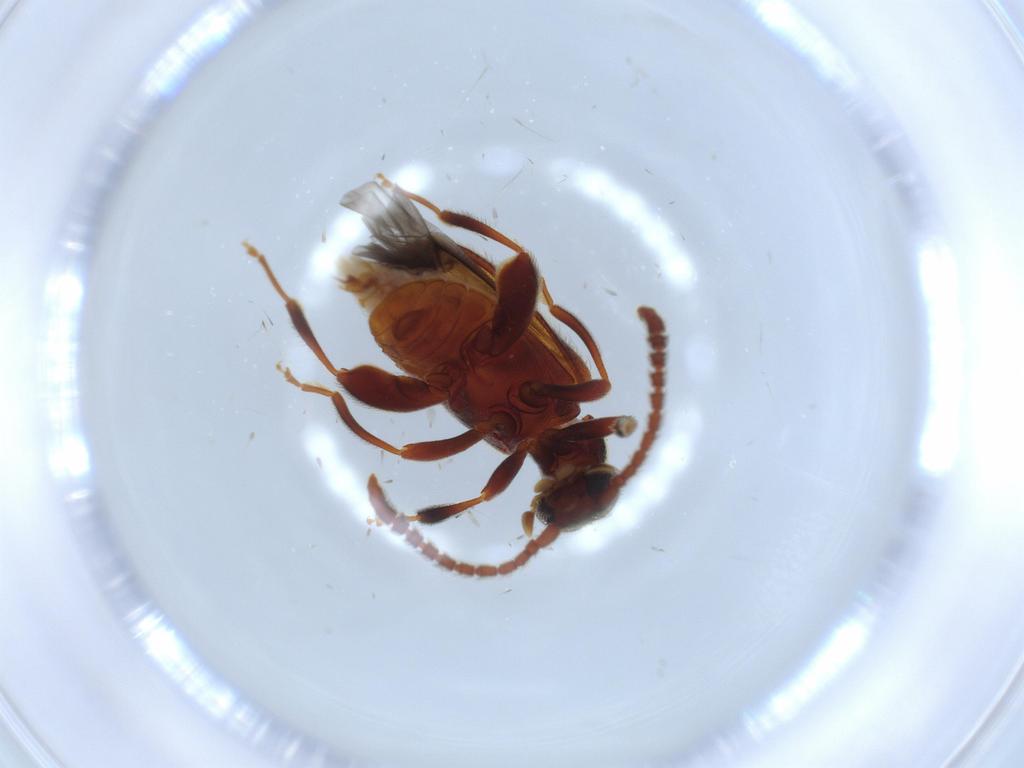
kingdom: Animalia
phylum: Arthropoda
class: Insecta
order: Coleoptera
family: Aderidae
